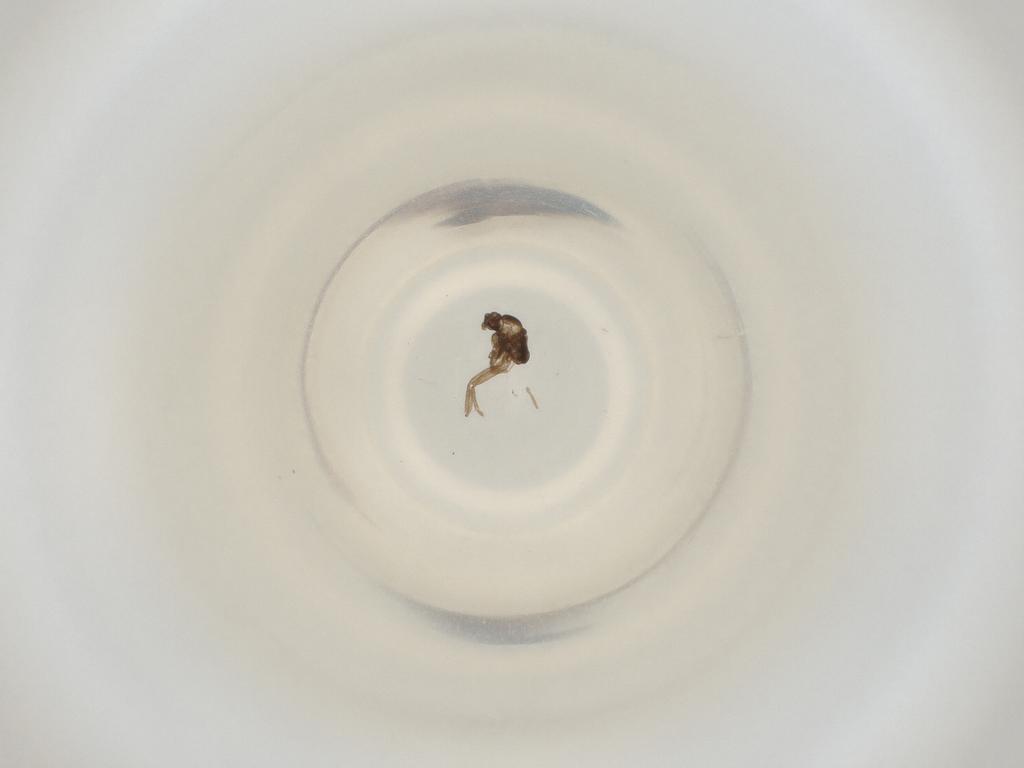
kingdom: Animalia
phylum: Arthropoda
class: Insecta
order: Diptera
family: Cecidomyiidae
